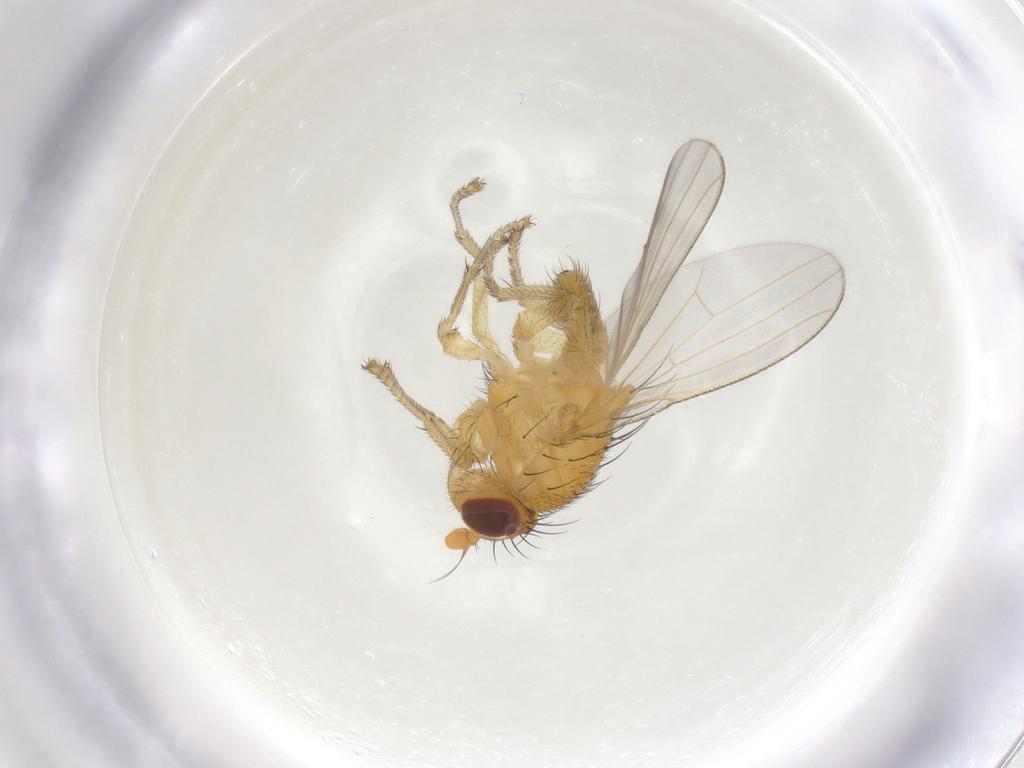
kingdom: Animalia
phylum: Arthropoda
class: Insecta
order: Diptera
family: Lauxaniidae
